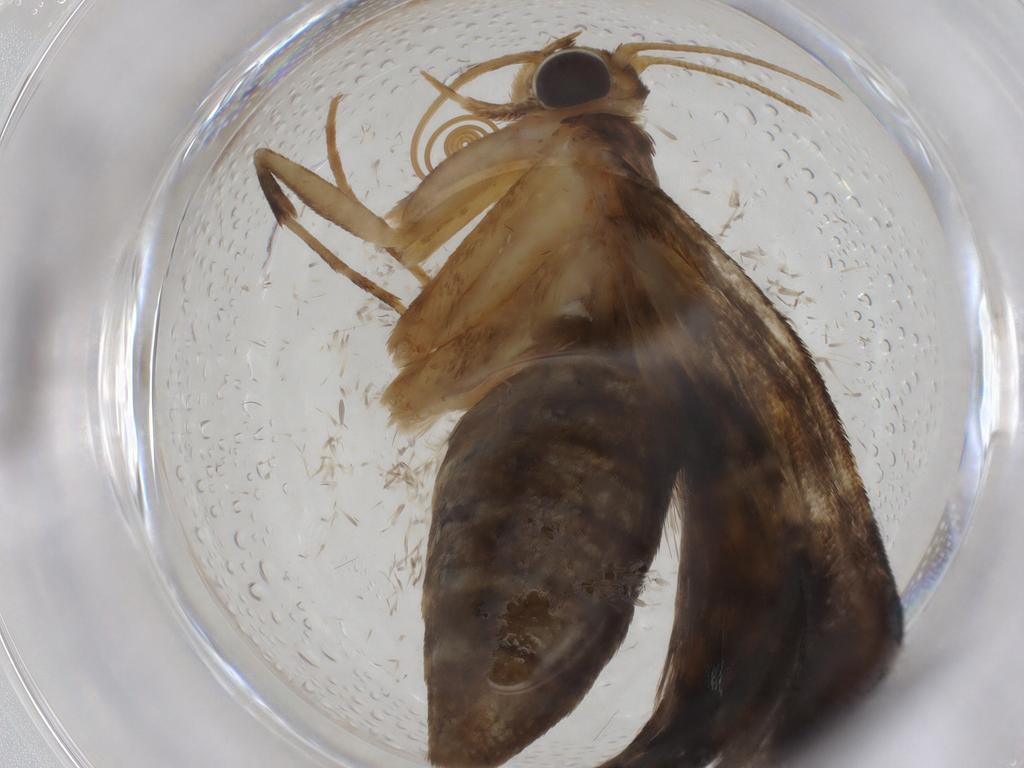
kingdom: Animalia
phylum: Arthropoda
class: Insecta
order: Lepidoptera
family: Crambidae
